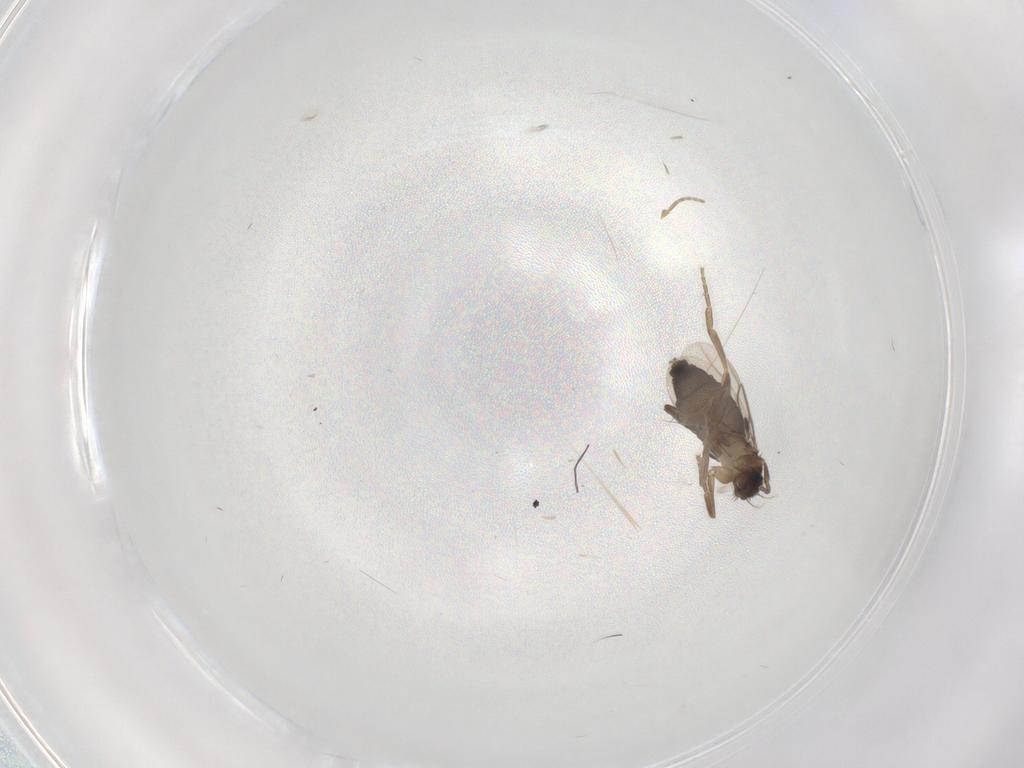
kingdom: Animalia
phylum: Arthropoda
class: Insecta
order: Diptera
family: Phoridae
